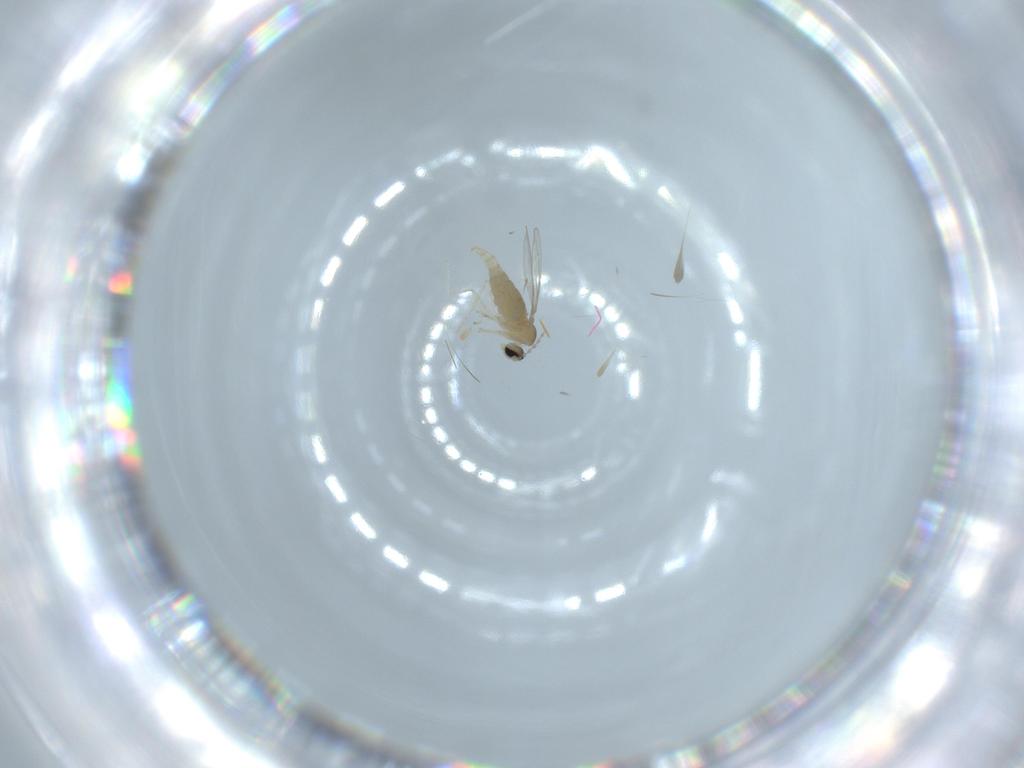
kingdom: Animalia
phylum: Arthropoda
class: Insecta
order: Diptera
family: Cecidomyiidae
